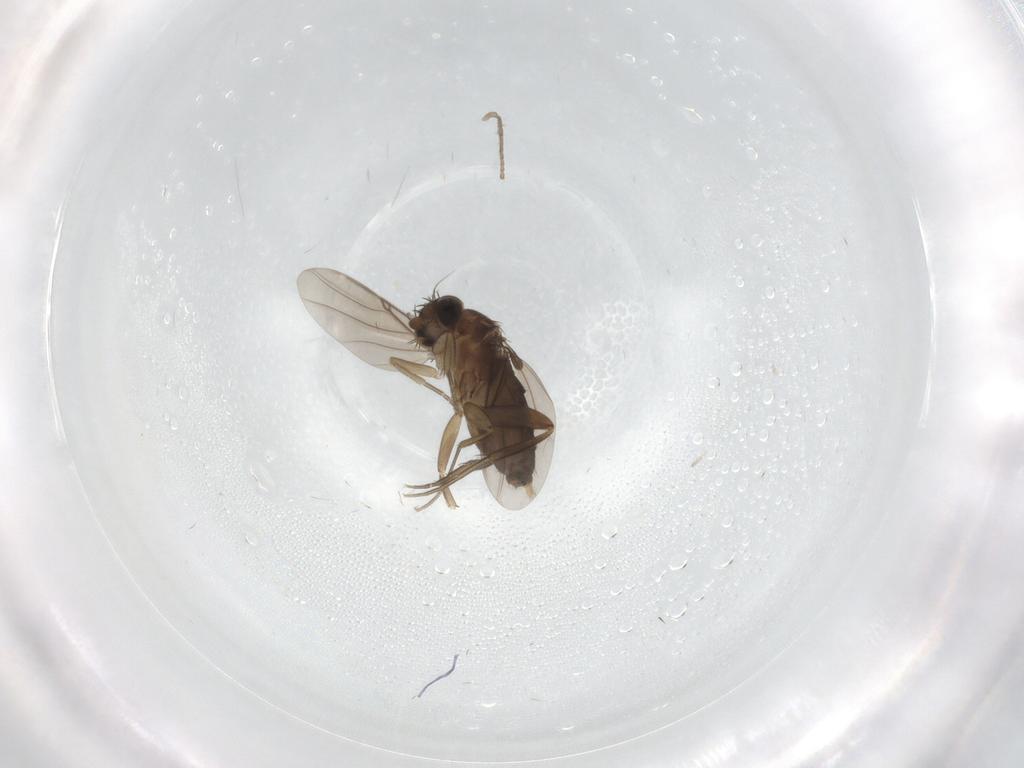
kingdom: Animalia
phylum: Arthropoda
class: Insecta
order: Diptera
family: Phoridae
